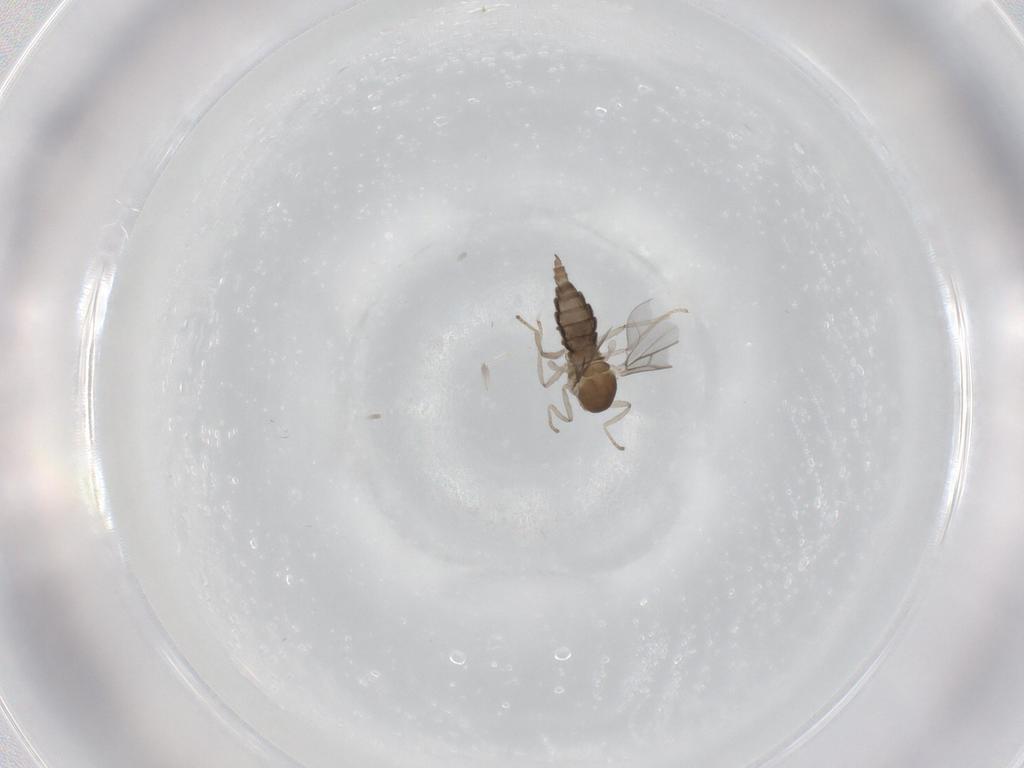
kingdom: Animalia
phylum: Arthropoda
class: Insecta
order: Diptera
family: Cecidomyiidae
